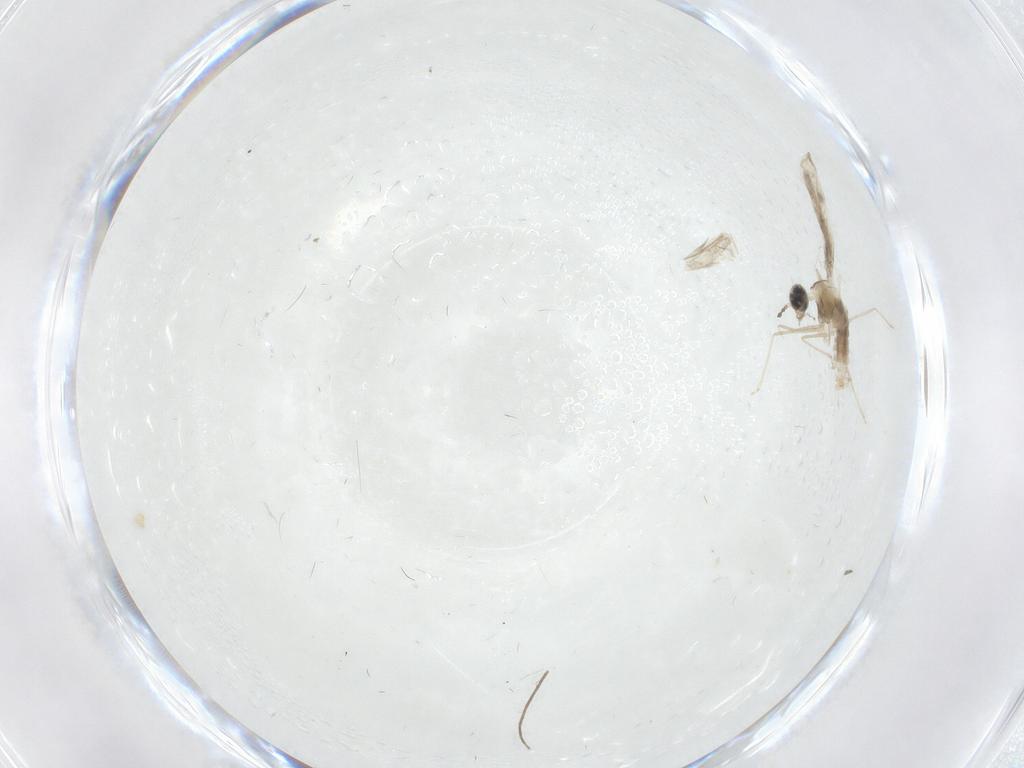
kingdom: Animalia
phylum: Arthropoda
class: Insecta
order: Diptera
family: Cecidomyiidae
